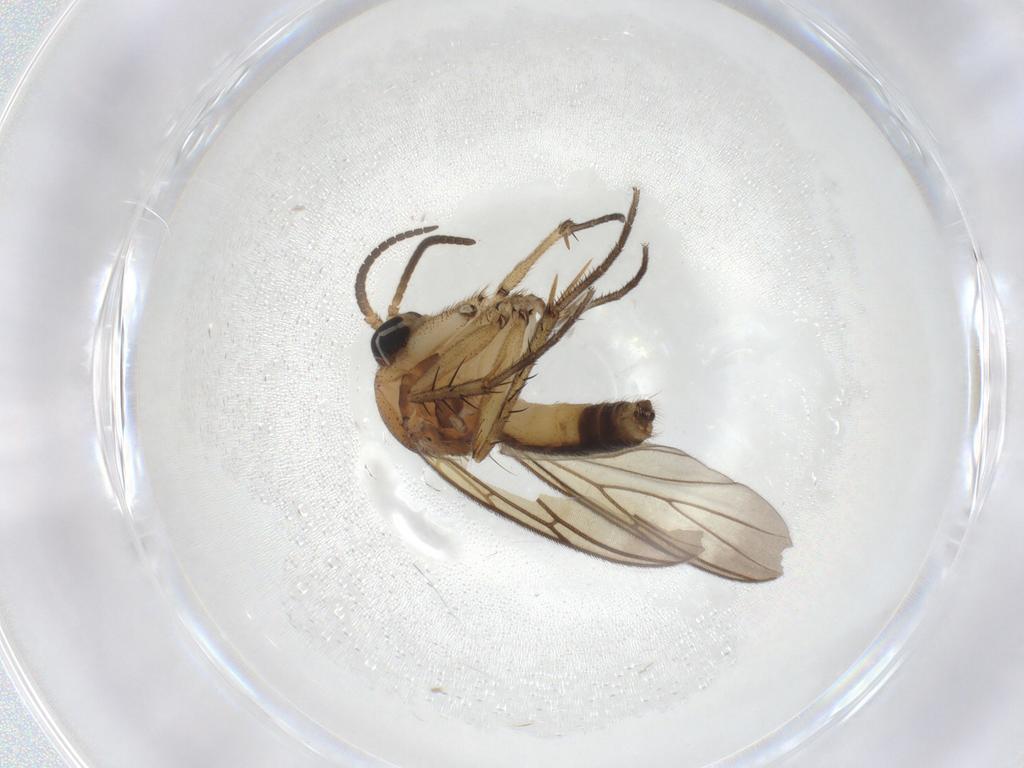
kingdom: Animalia
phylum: Arthropoda
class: Insecta
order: Diptera
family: Mycetophilidae
